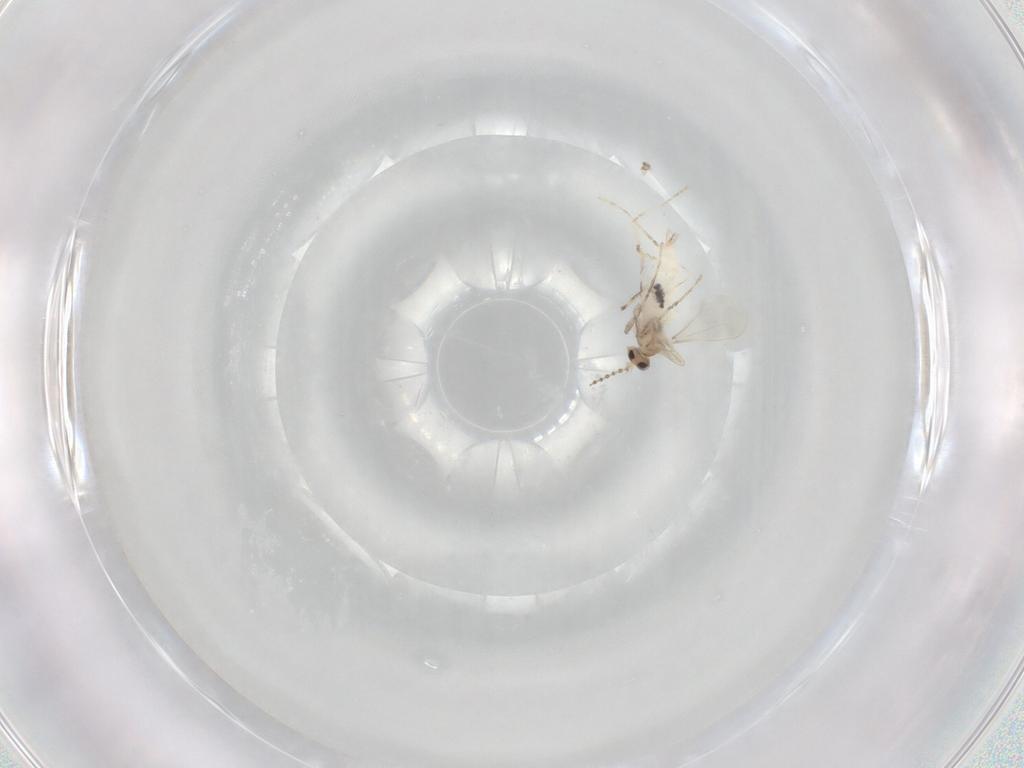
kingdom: Animalia
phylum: Arthropoda
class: Insecta
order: Diptera
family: Cecidomyiidae
